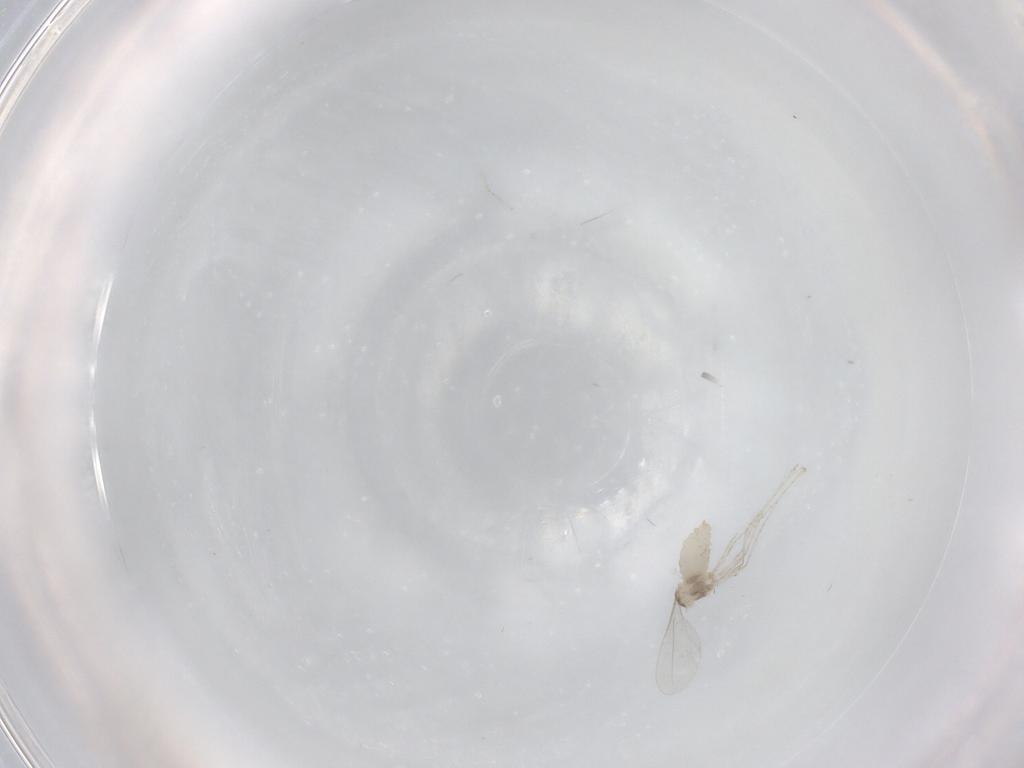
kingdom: Animalia
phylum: Arthropoda
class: Insecta
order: Diptera
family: Cecidomyiidae
